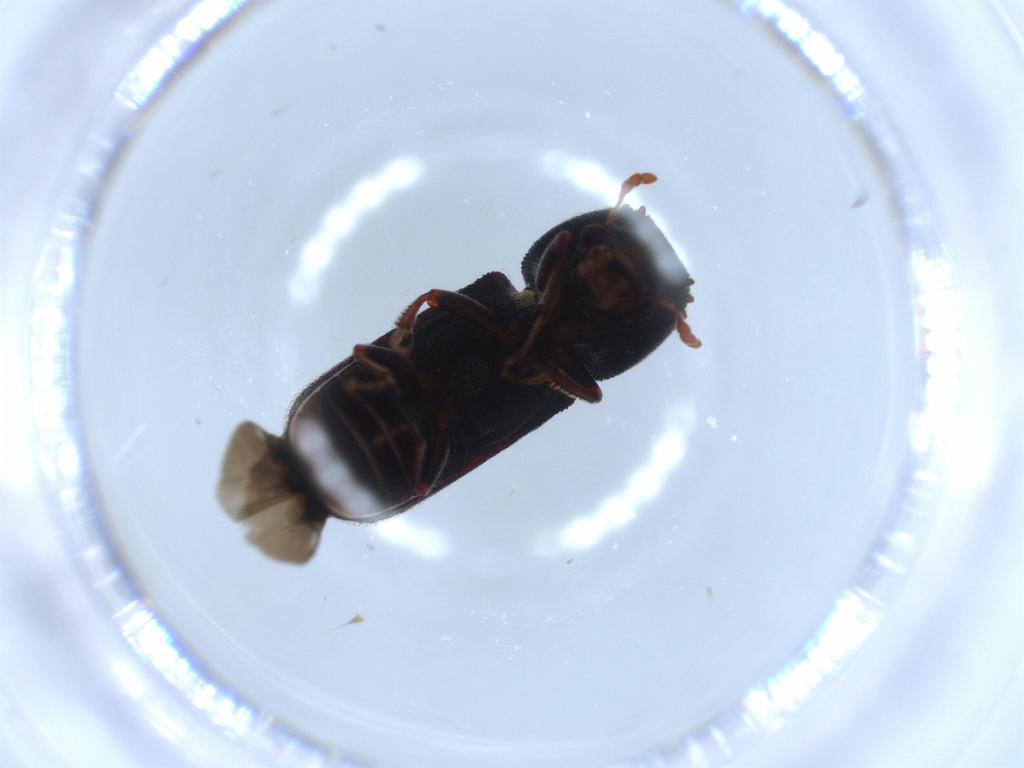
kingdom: Animalia
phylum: Arthropoda
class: Insecta
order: Coleoptera
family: Bostrichidae
